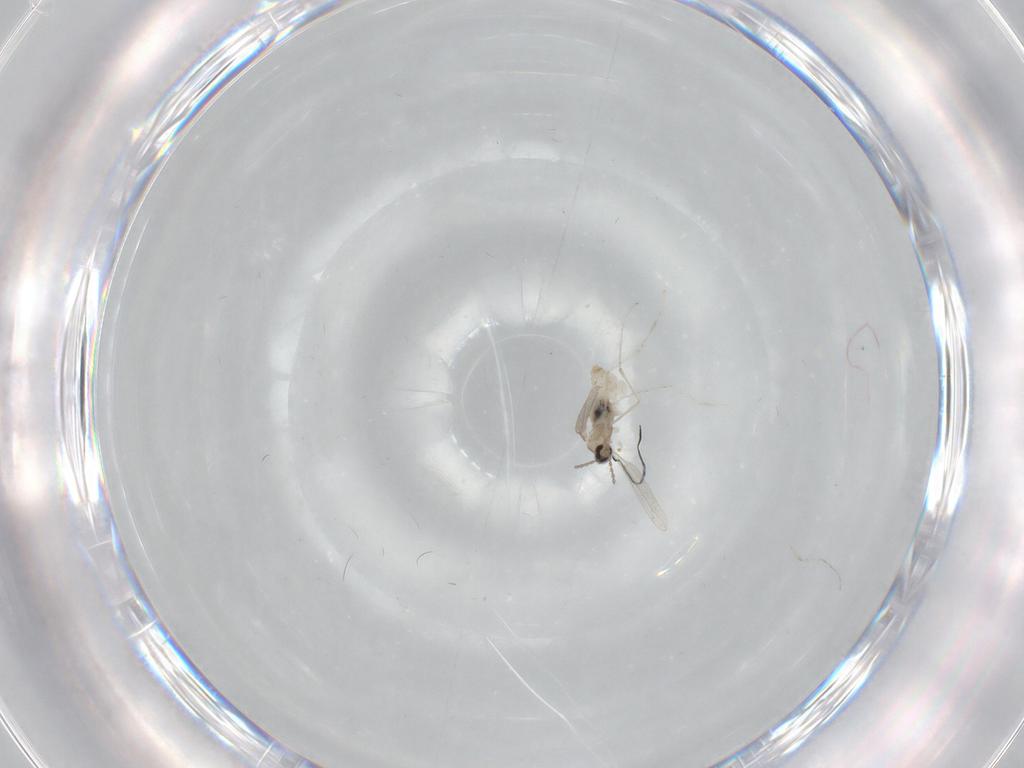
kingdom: Animalia
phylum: Arthropoda
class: Insecta
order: Diptera
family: Cecidomyiidae
